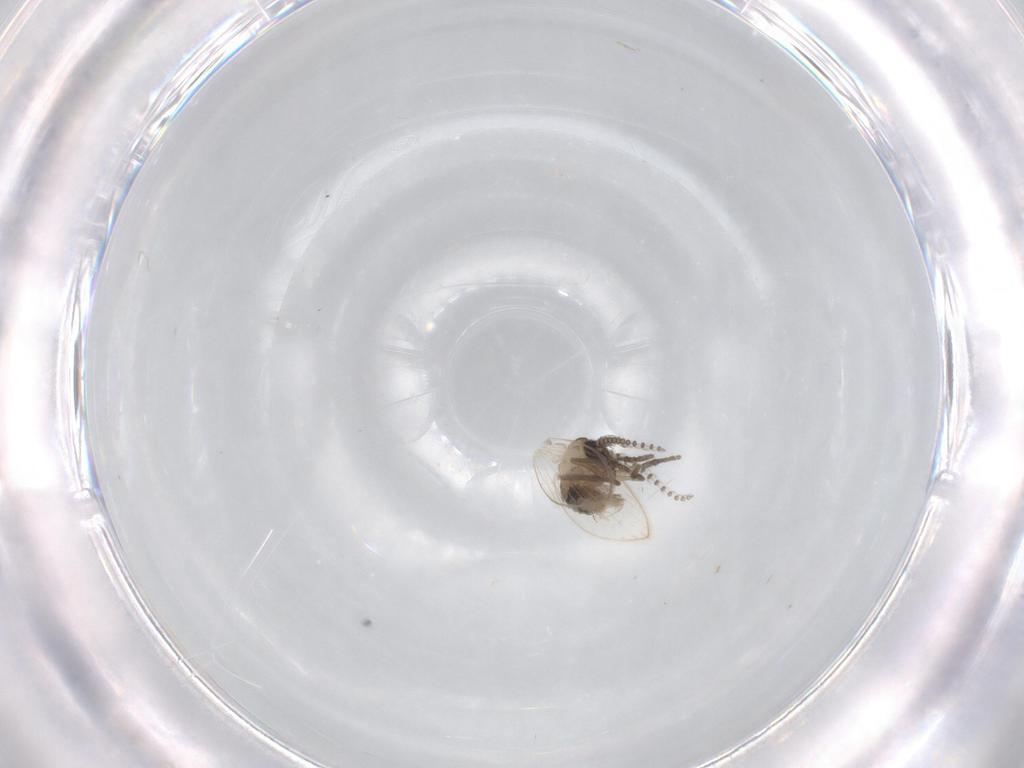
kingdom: Animalia
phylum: Arthropoda
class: Insecta
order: Diptera
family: Psychodidae
